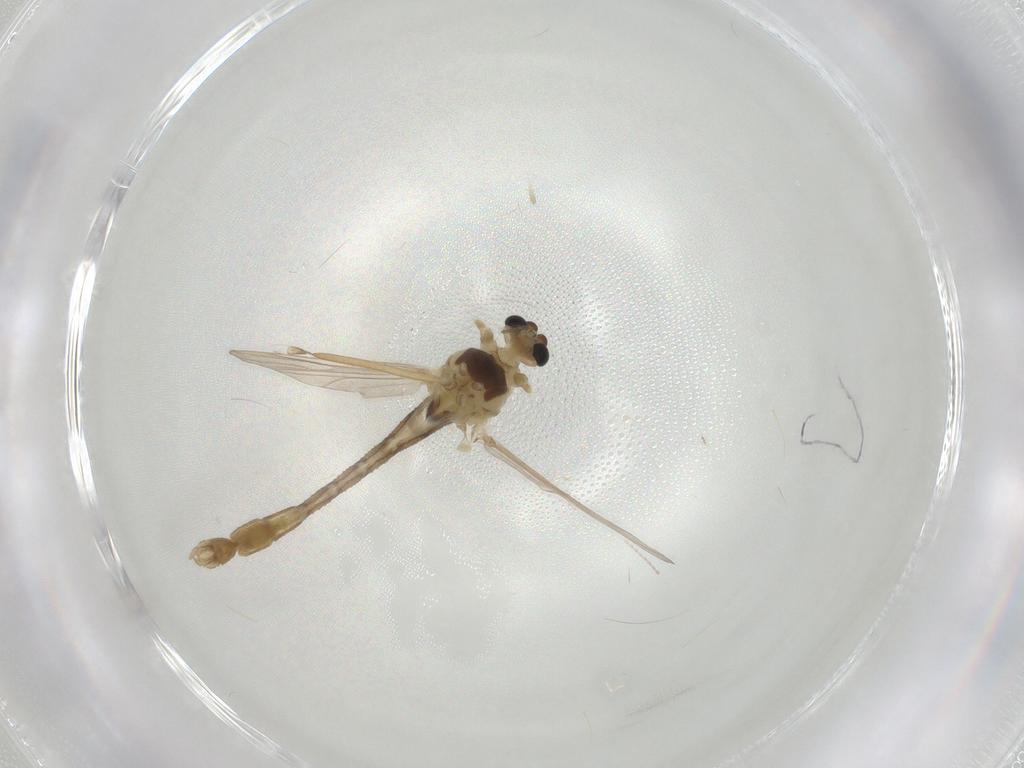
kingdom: Animalia
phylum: Arthropoda
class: Insecta
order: Diptera
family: Cecidomyiidae
